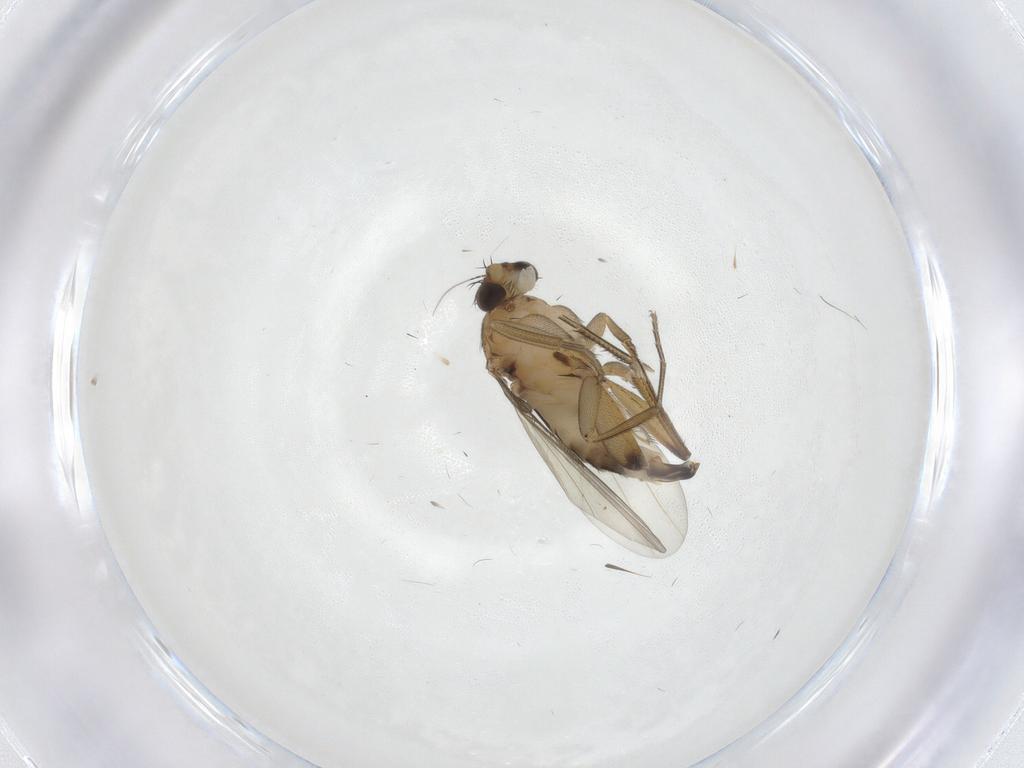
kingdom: Animalia
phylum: Arthropoda
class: Insecta
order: Diptera
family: Phoridae
